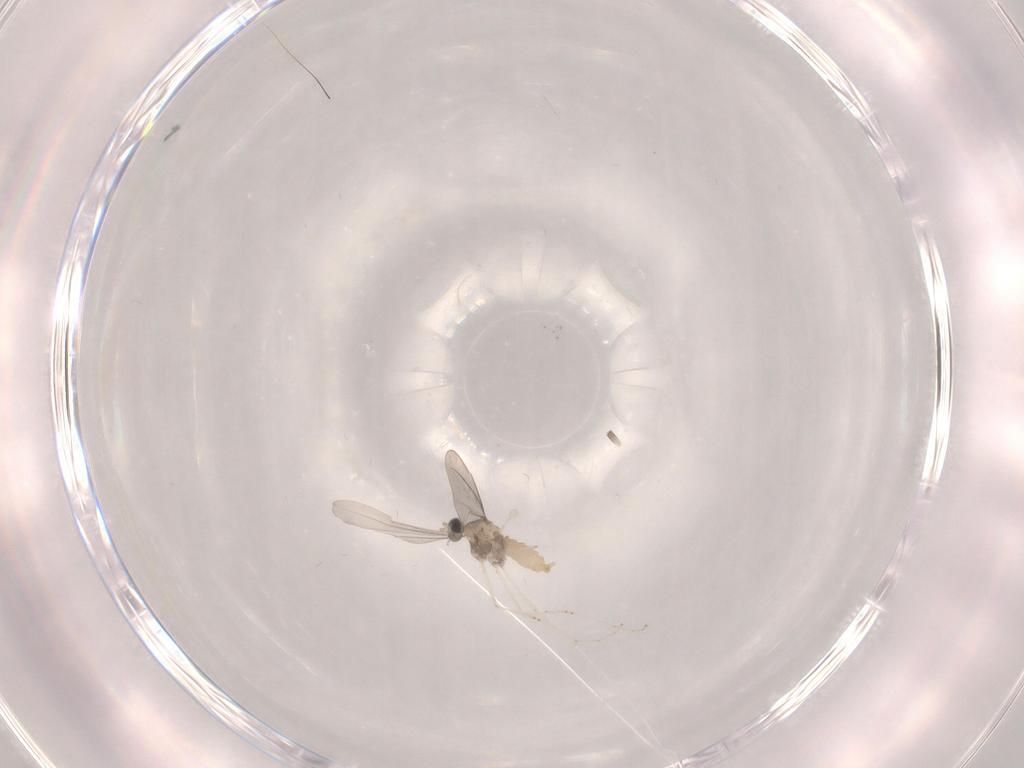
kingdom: Animalia
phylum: Arthropoda
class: Insecta
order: Diptera
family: Cecidomyiidae
